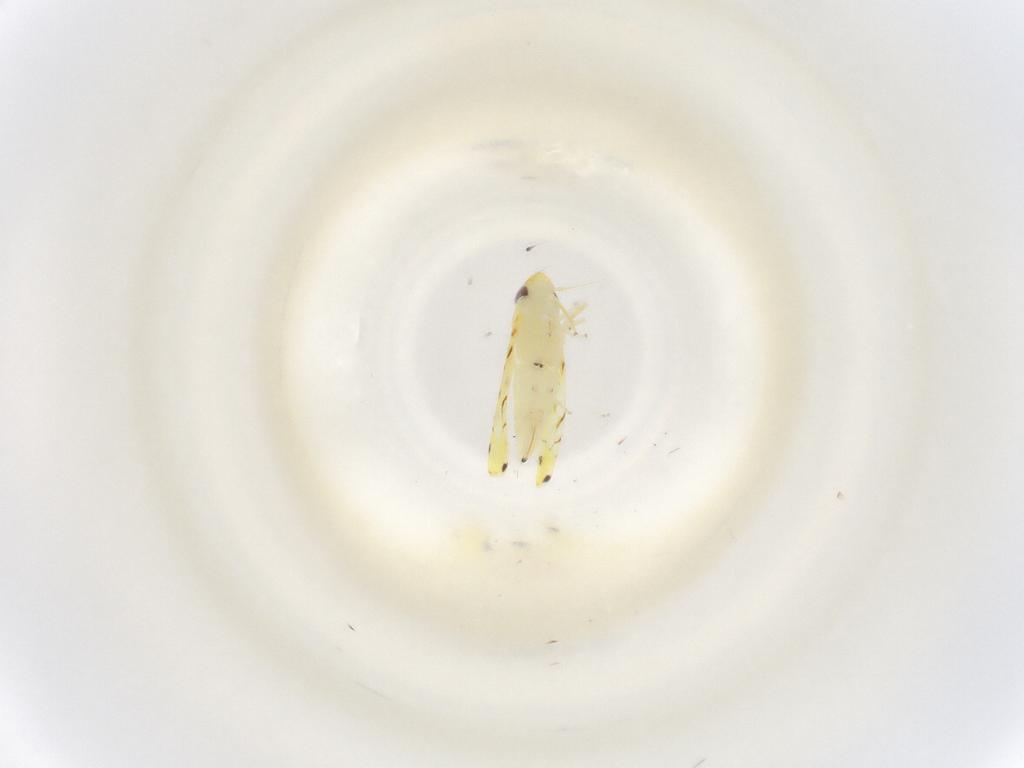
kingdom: Animalia
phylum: Arthropoda
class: Insecta
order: Hemiptera
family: Cicadellidae
